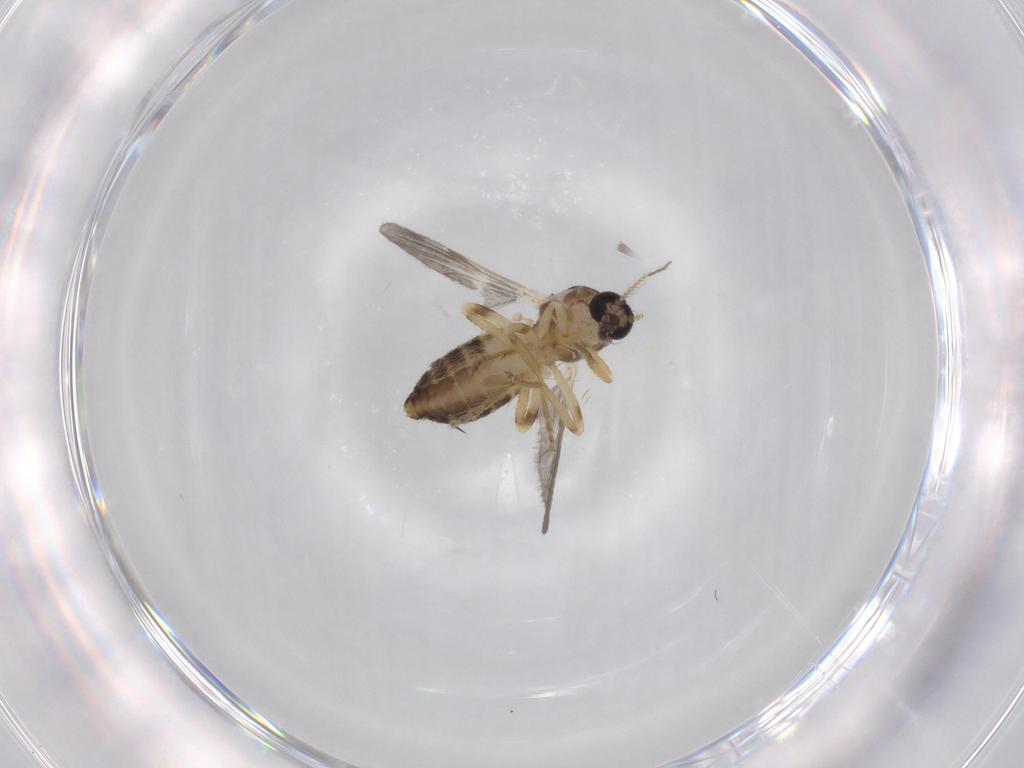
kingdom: Animalia
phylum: Arthropoda
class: Insecta
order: Diptera
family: Ceratopogonidae
